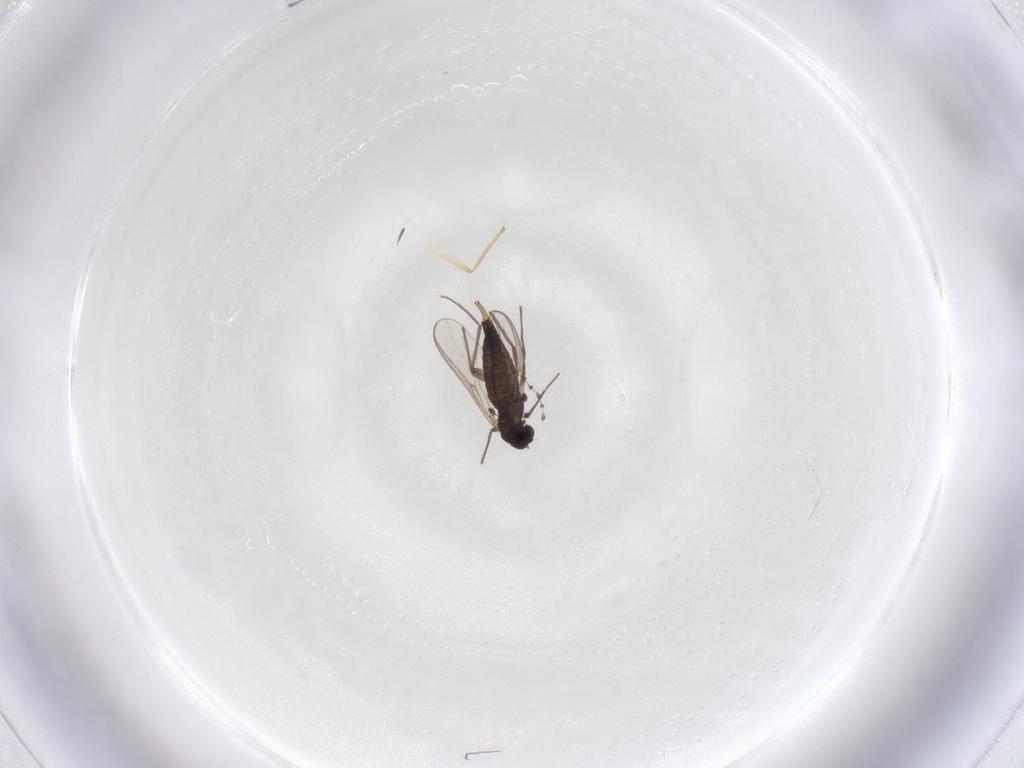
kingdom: Animalia
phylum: Arthropoda
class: Insecta
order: Diptera
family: Chironomidae
